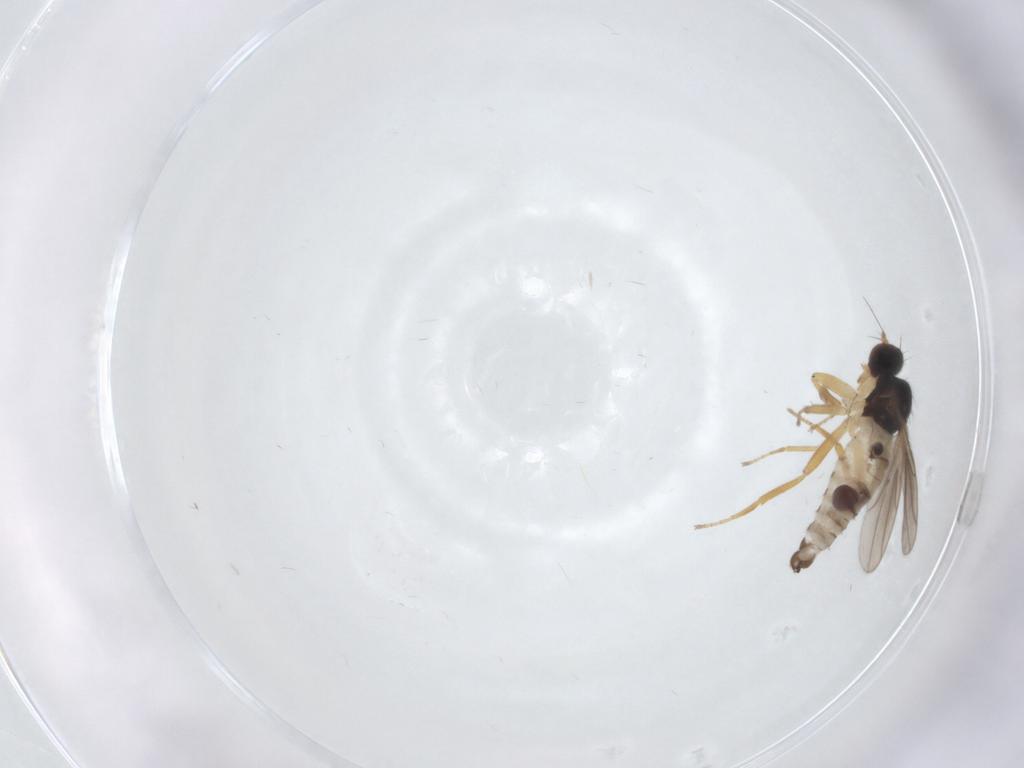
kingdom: Animalia
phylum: Arthropoda
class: Insecta
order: Diptera
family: Hybotidae
